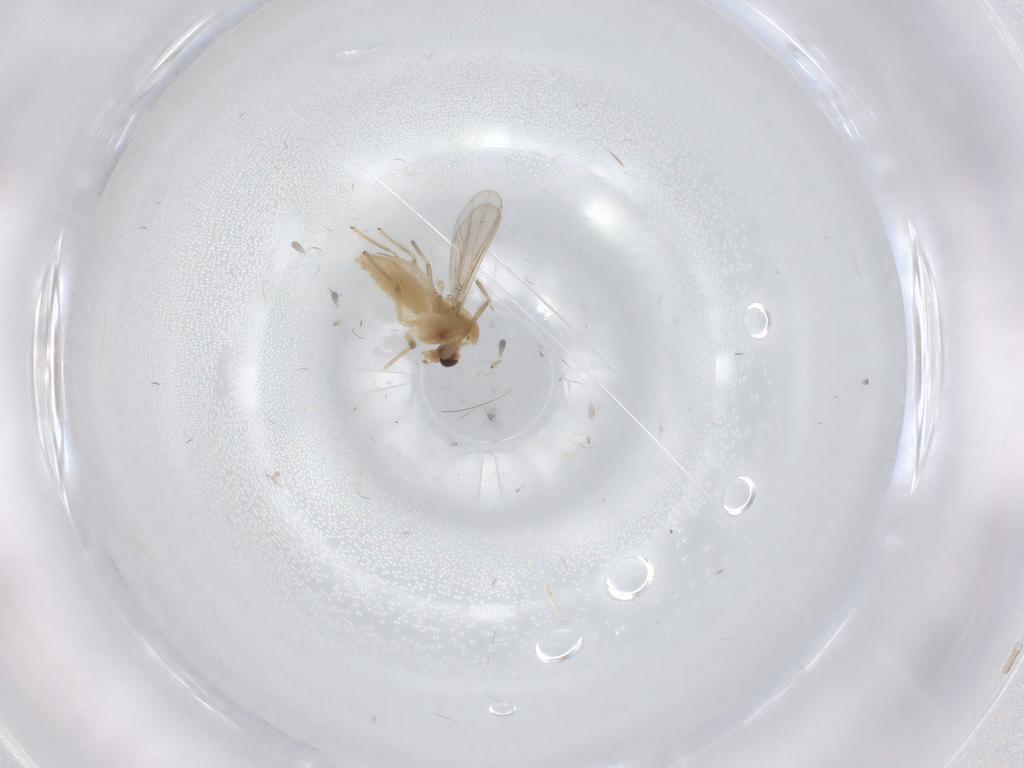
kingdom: Animalia
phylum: Arthropoda
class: Insecta
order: Diptera
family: Chironomidae
